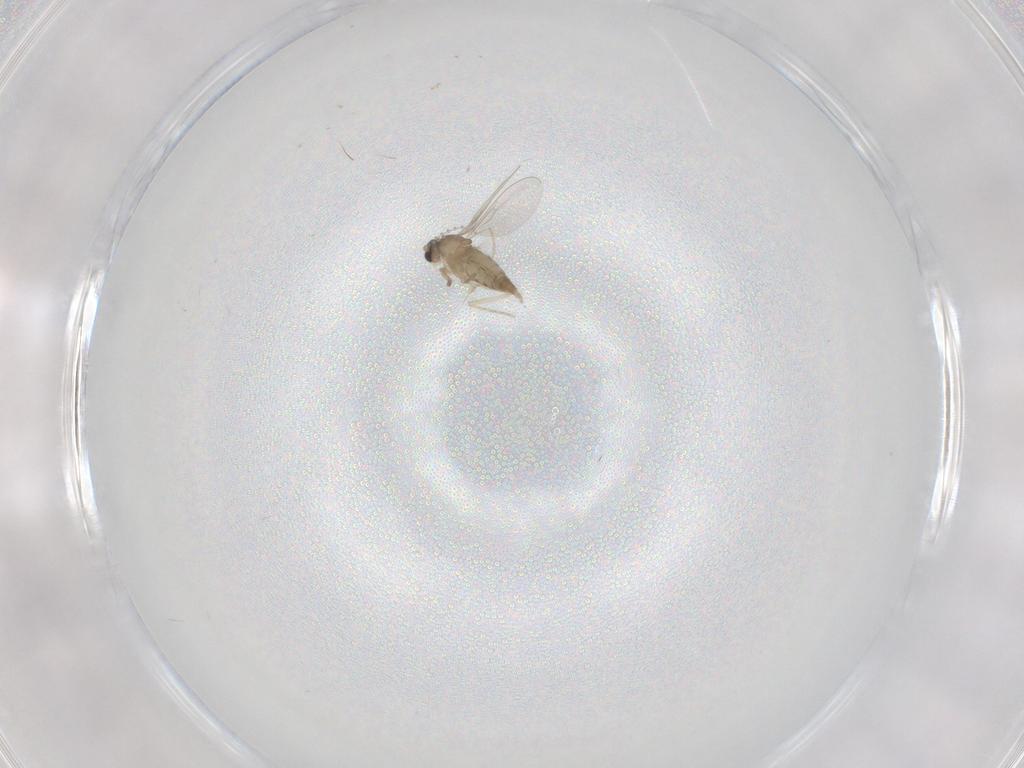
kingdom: Animalia
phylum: Arthropoda
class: Insecta
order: Diptera
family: Cecidomyiidae
